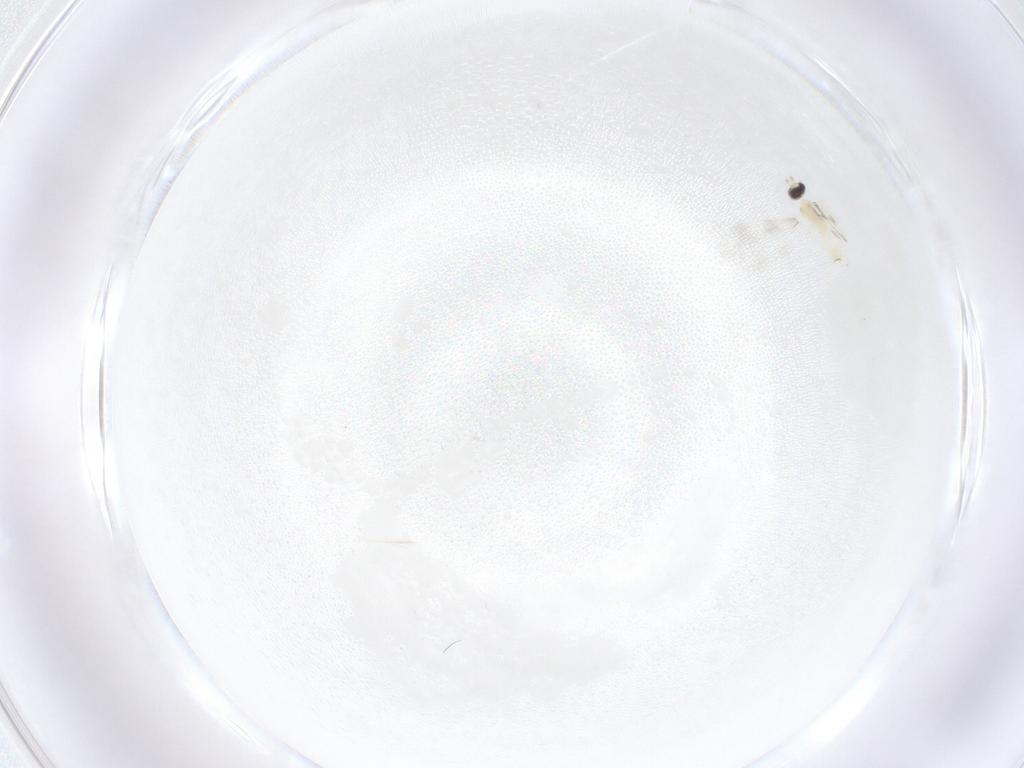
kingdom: Animalia
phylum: Arthropoda
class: Insecta
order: Diptera
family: Cecidomyiidae
